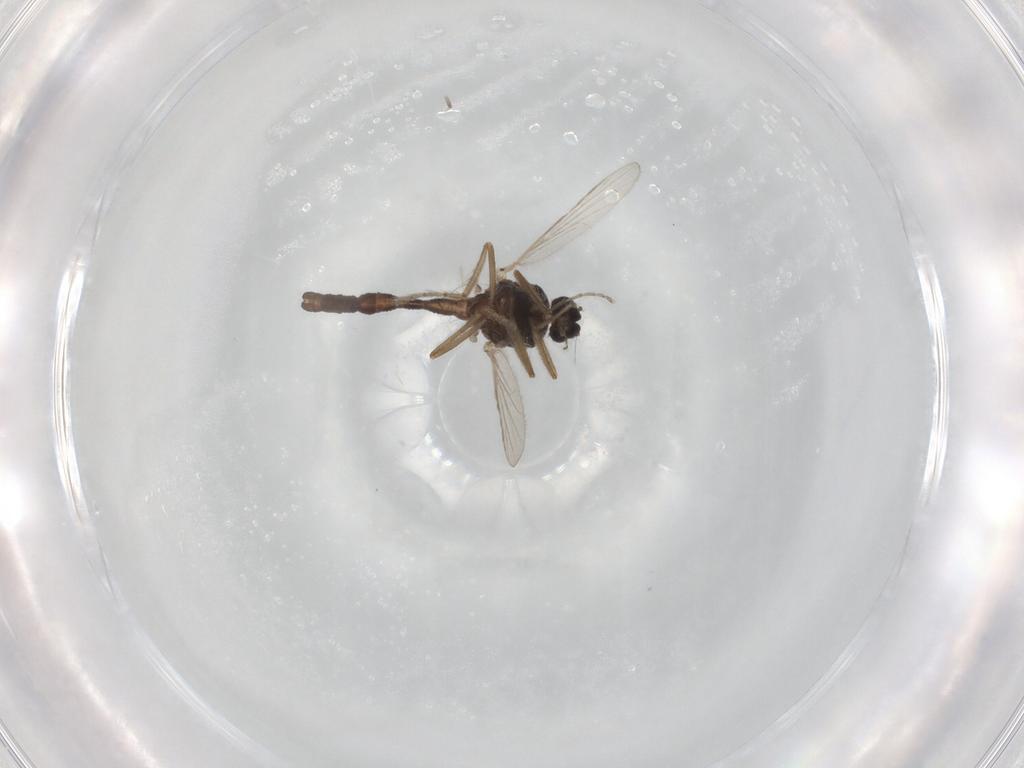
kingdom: Animalia
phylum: Arthropoda
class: Insecta
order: Diptera
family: Ceratopogonidae
